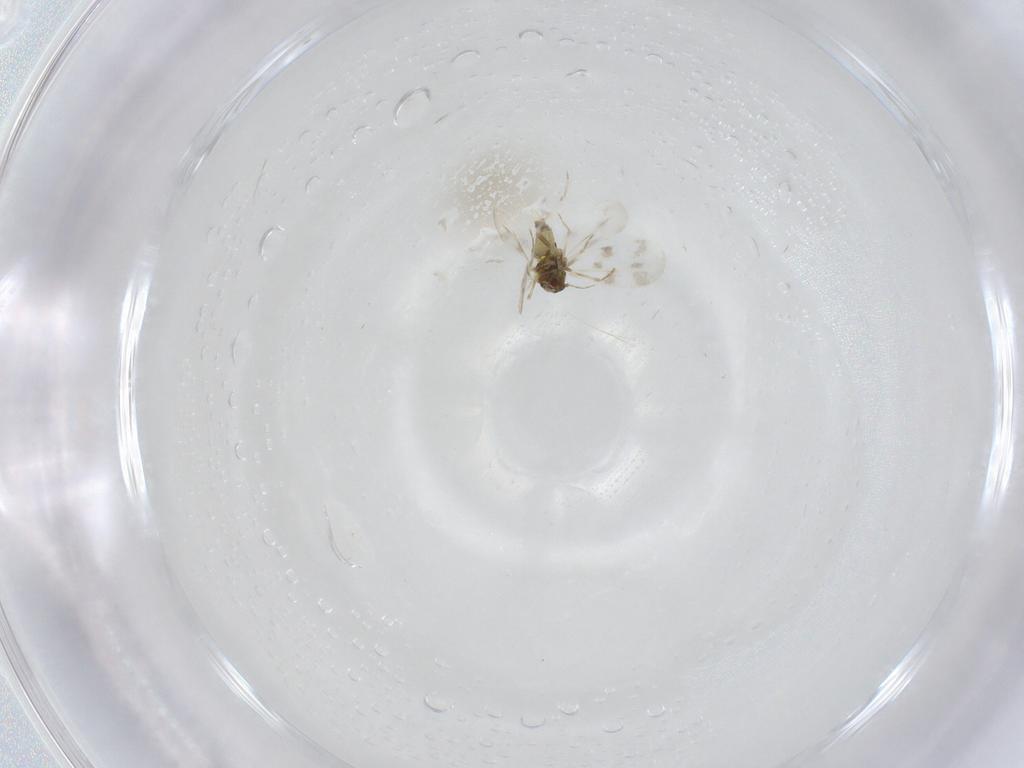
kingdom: Animalia
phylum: Arthropoda
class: Insecta
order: Hemiptera
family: Aleyrodidae
